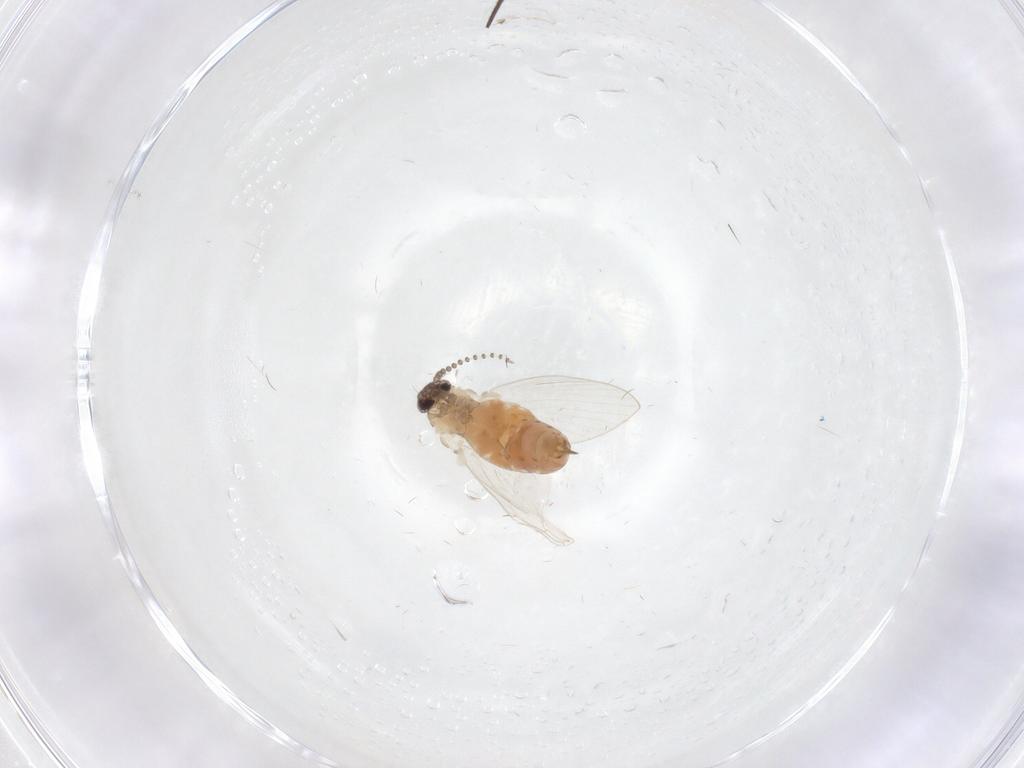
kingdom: Animalia
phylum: Arthropoda
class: Insecta
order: Diptera
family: Psychodidae
